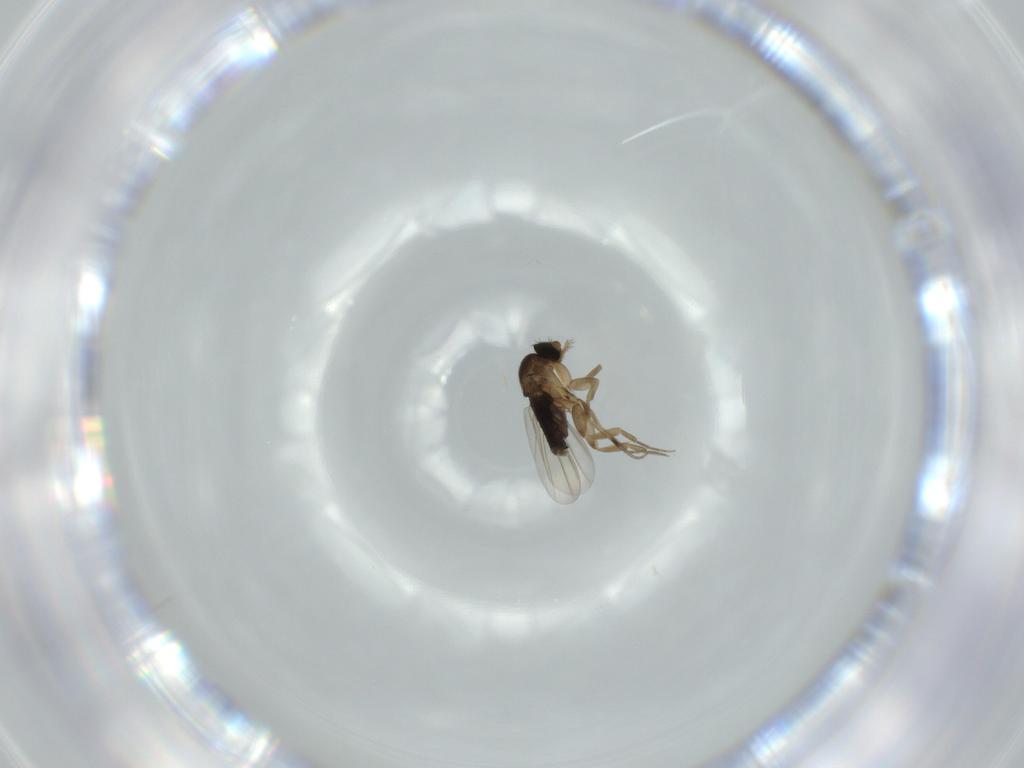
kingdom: Animalia
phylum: Arthropoda
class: Insecta
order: Diptera
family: Phoridae
